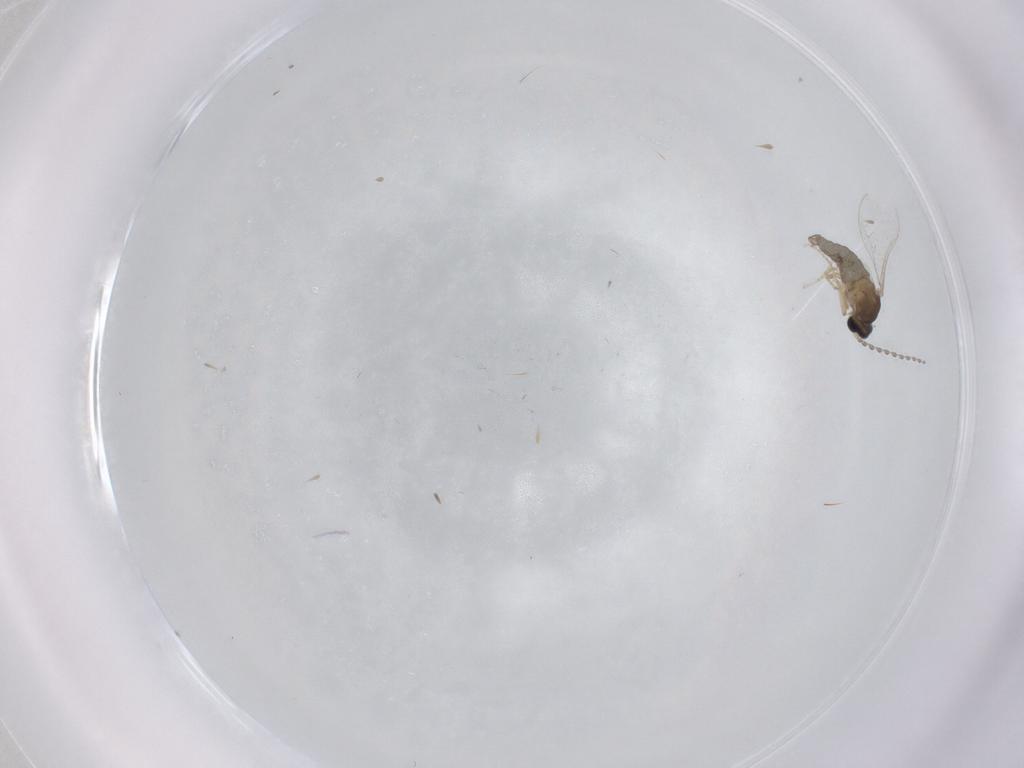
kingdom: Animalia
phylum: Arthropoda
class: Insecta
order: Diptera
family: Cecidomyiidae
